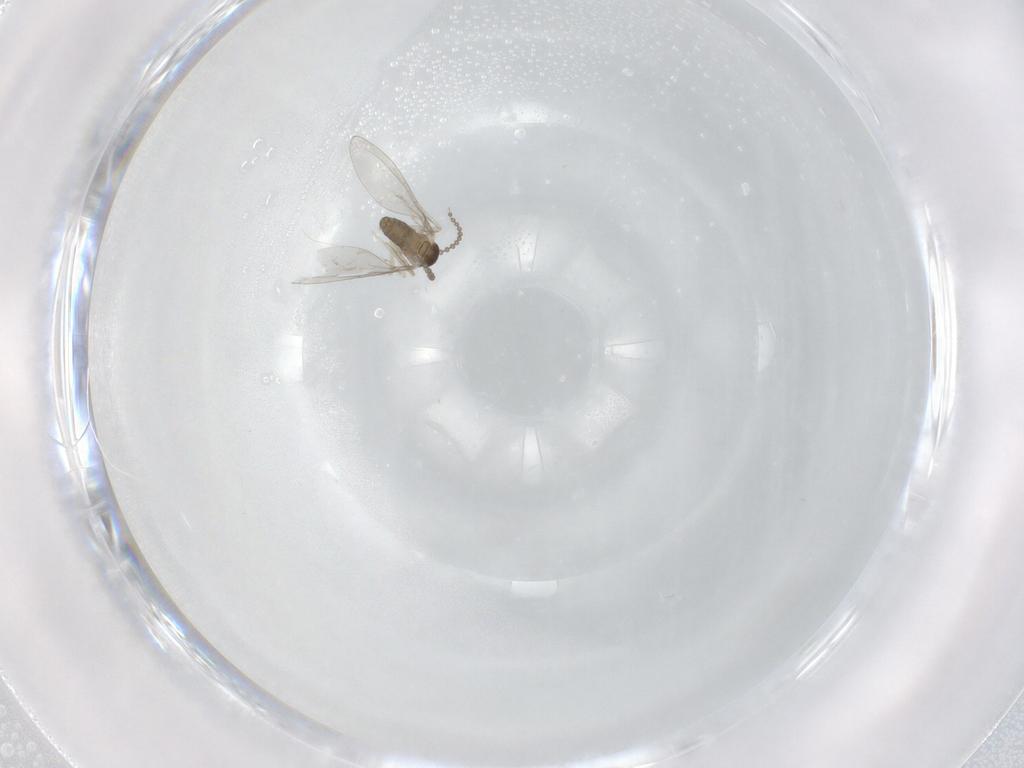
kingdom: Animalia
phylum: Arthropoda
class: Insecta
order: Diptera
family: Cecidomyiidae
